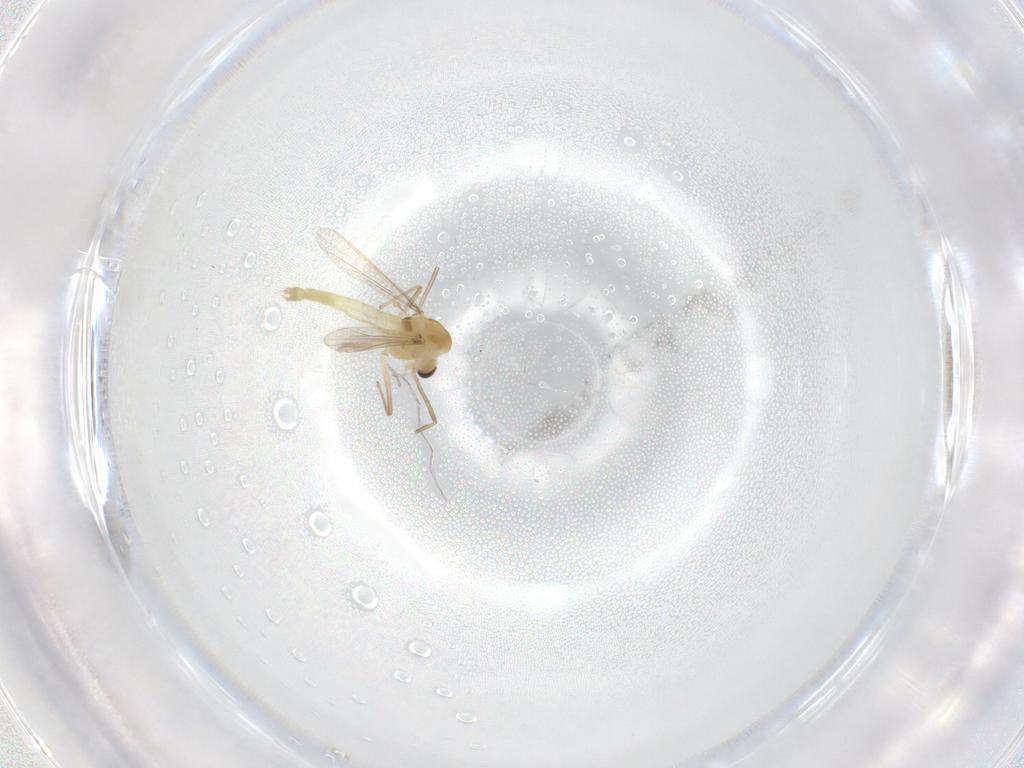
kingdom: Animalia
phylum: Arthropoda
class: Insecta
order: Diptera
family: Chironomidae
